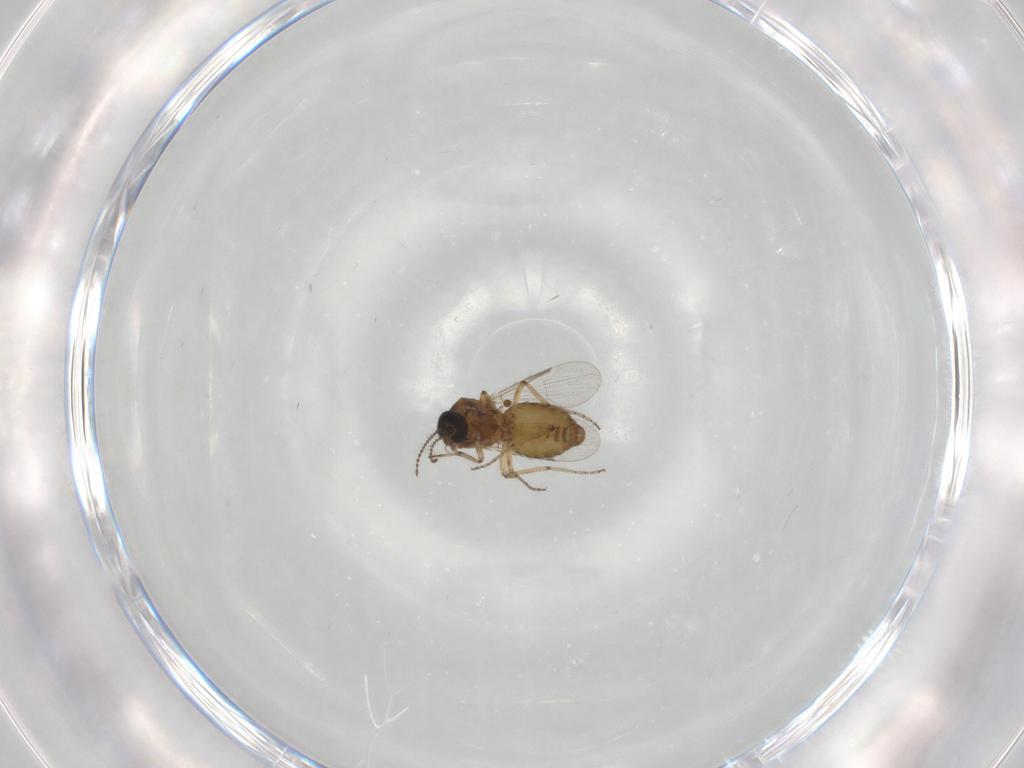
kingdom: Animalia
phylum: Arthropoda
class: Insecta
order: Diptera
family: Ceratopogonidae
